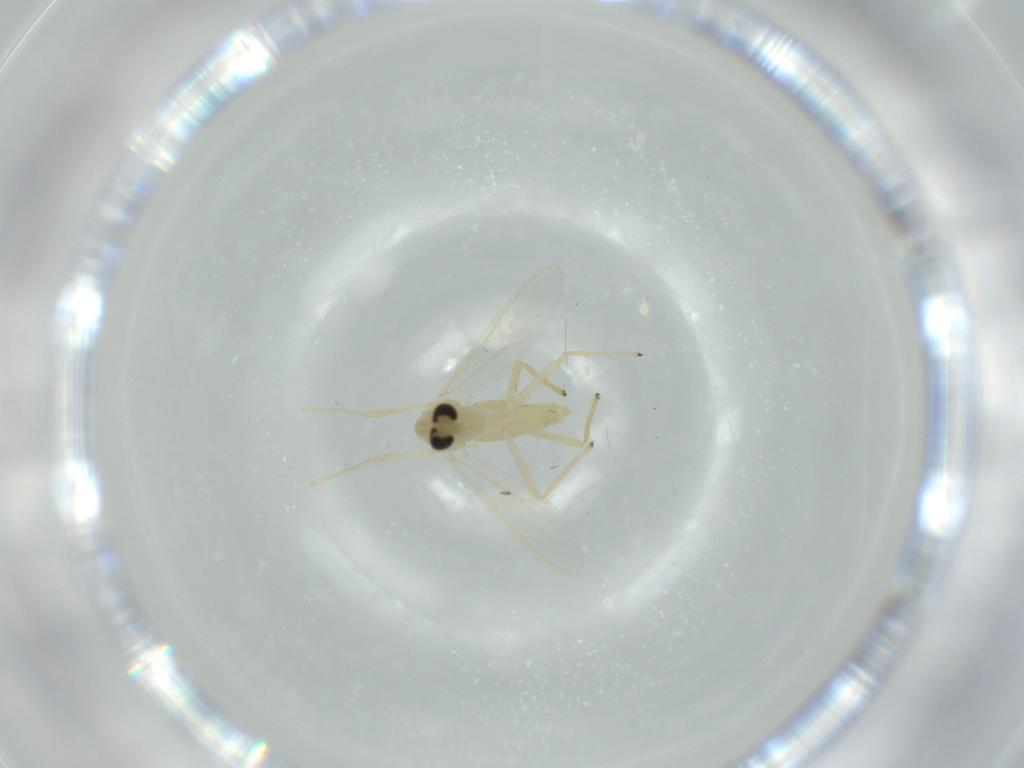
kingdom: Animalia
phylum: Arthropoda
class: Insecta
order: Diptera
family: Chironomidae
